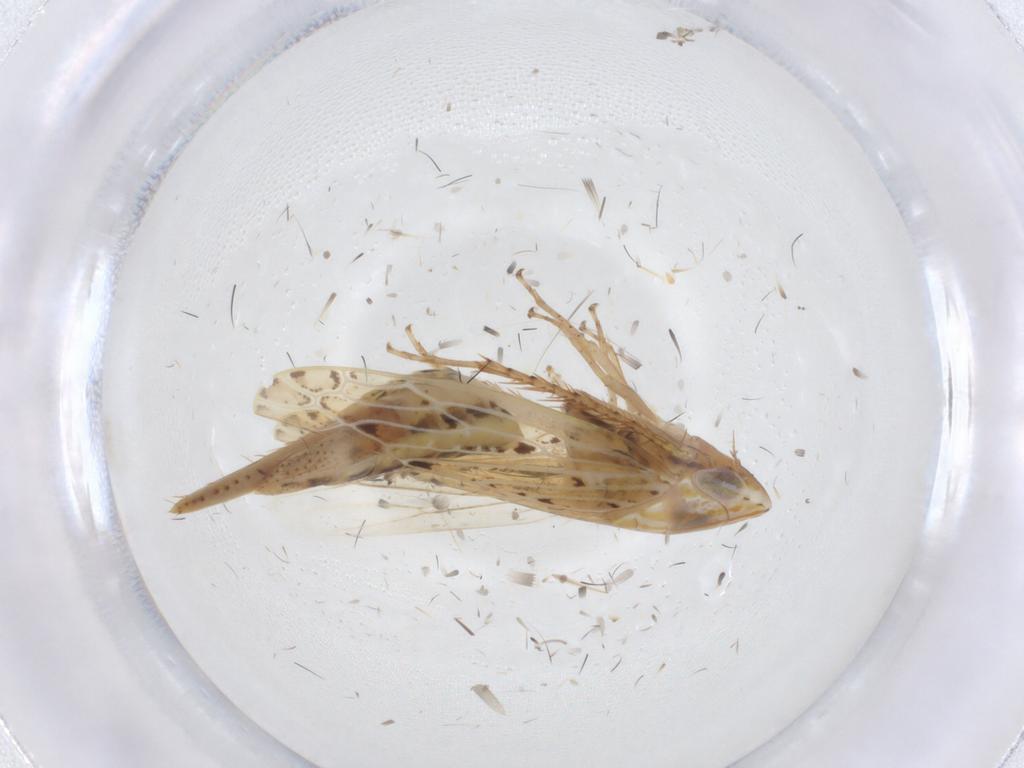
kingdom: Animalia
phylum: Arthropoda
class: Insecta
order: Hemiptera
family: Cicadellidae
